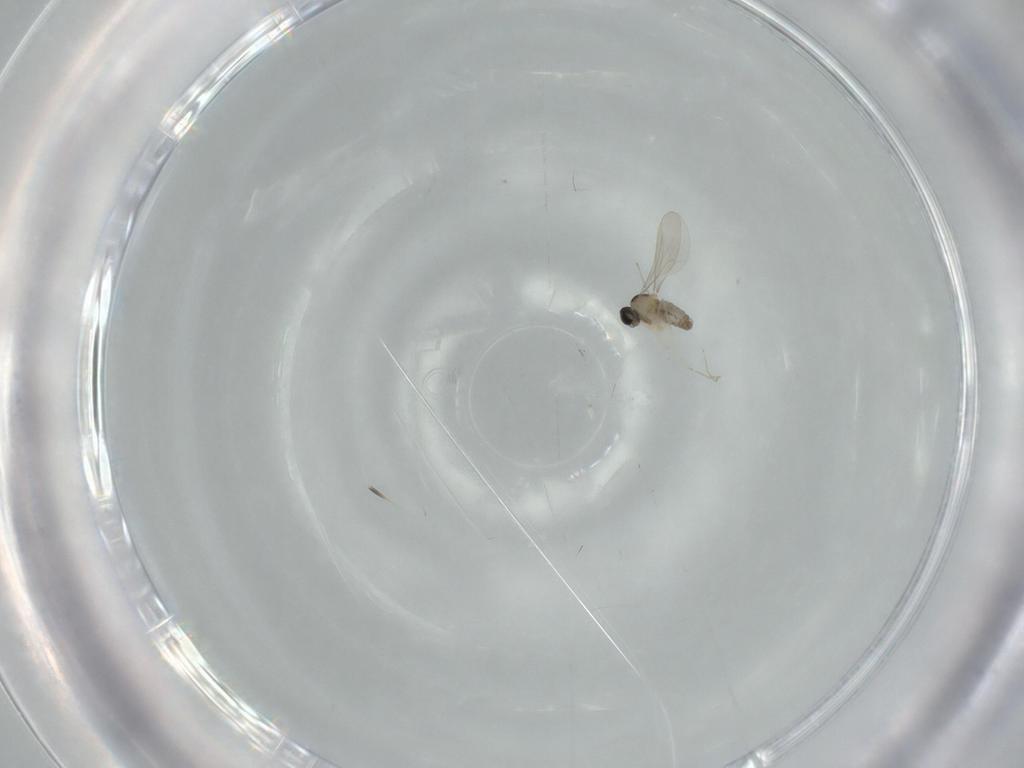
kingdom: Animalia
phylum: Arthropoda
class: Insecta
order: Diptera
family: Cecidomyiidae
